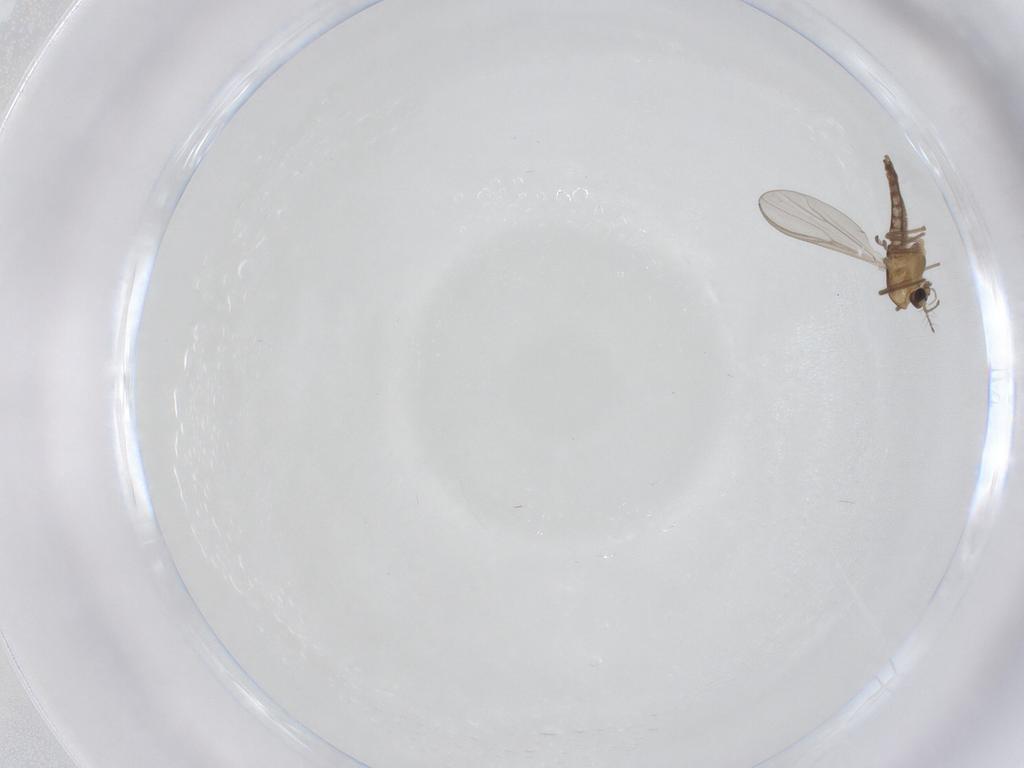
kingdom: Animalia
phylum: Arthropoda
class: Insecta
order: Diptera
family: Chironomidae
